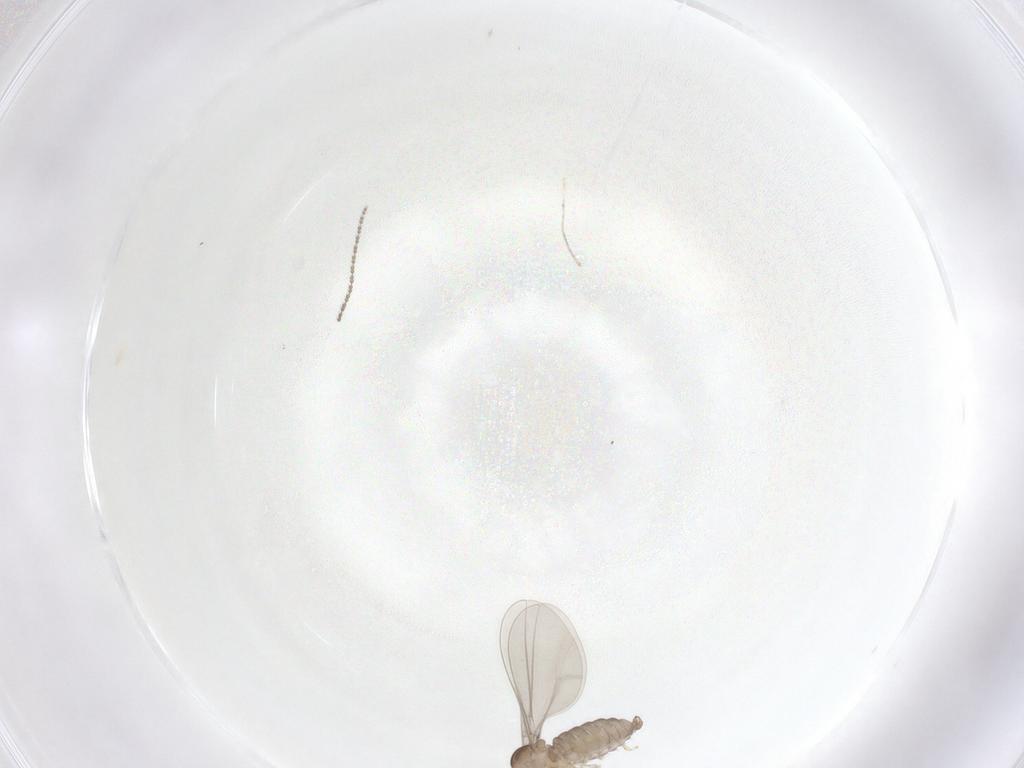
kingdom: Animalia
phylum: Arthropoda
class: Insecta
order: Diptera
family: Cecidomyiidae
